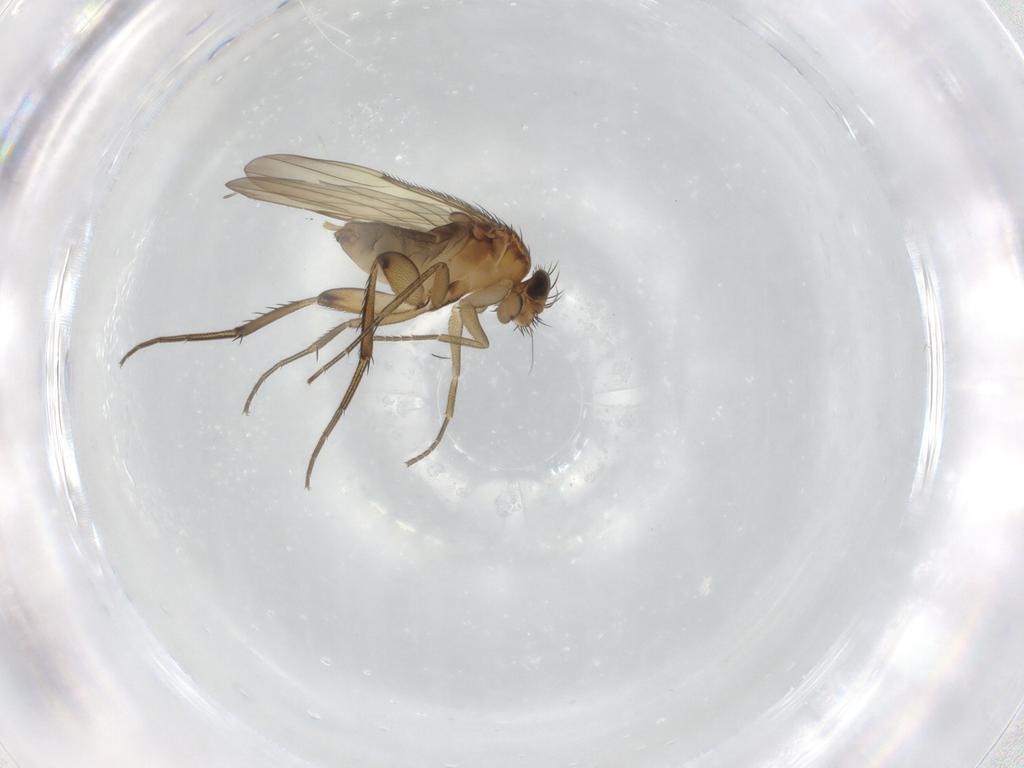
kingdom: Animalia
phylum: Arthropoda
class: Insecta
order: Diptera
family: Phoridae
